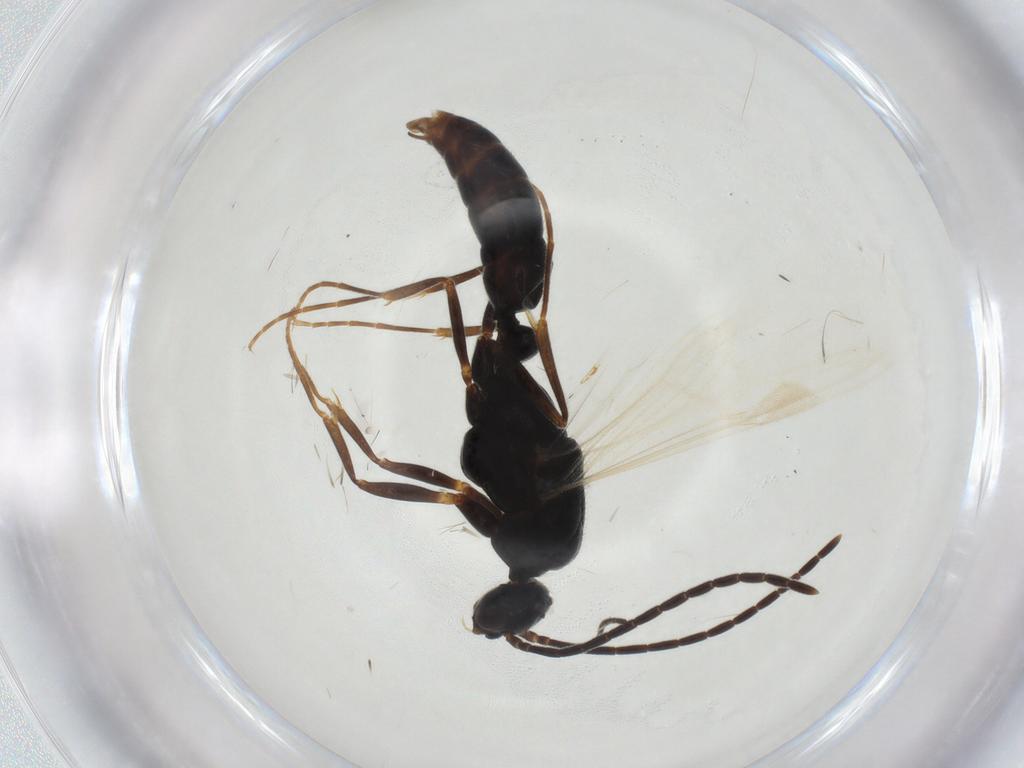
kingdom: Animalia
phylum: Arthropoda
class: Insecta
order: Hymenoptera
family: Formicidae
